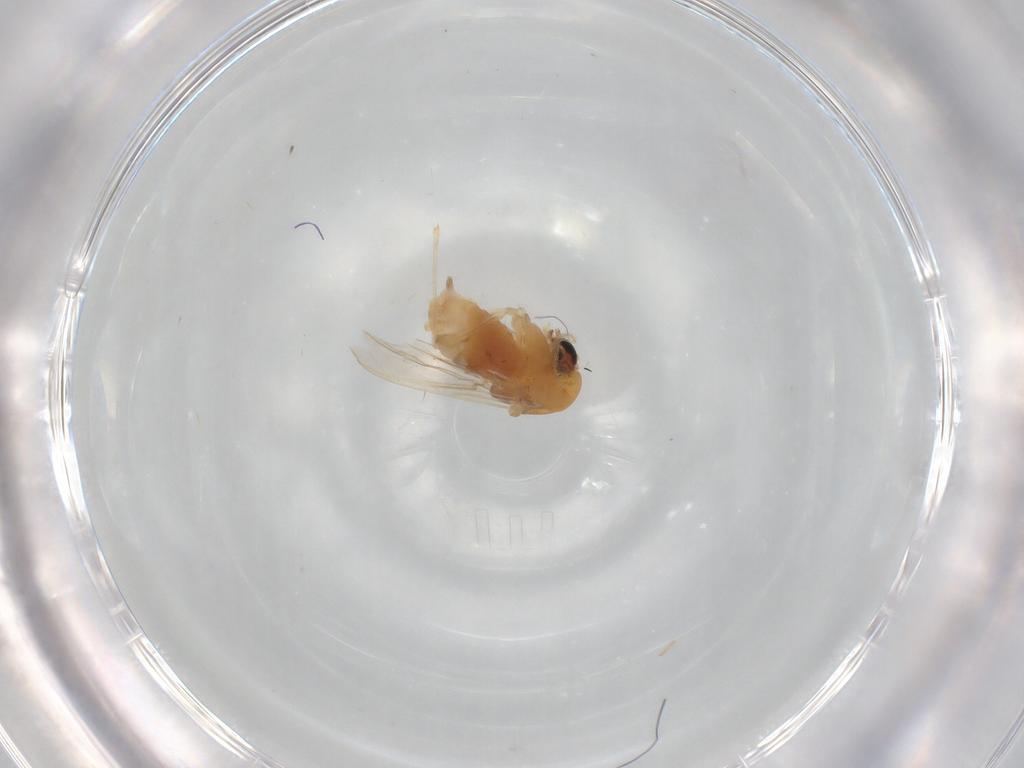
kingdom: Animalia
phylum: Arthropoda
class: Insecta
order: Diptera
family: Chironomidae
